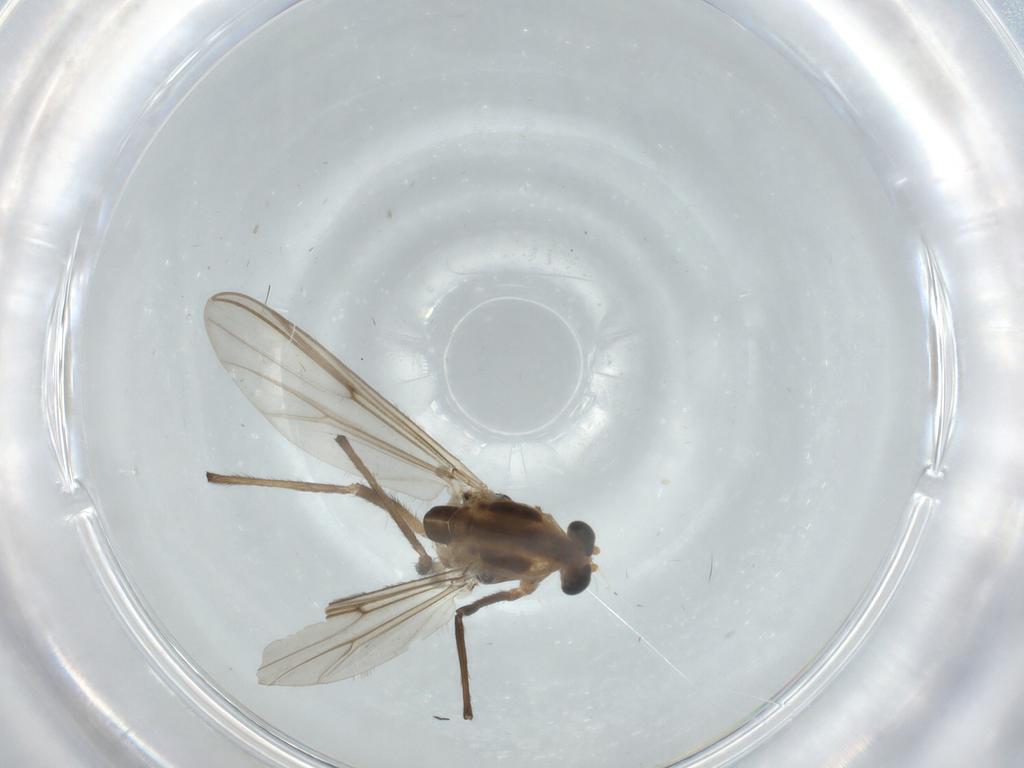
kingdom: Animalia
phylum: Arthropoda
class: Insecta
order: Diptera
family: Chironomidae
